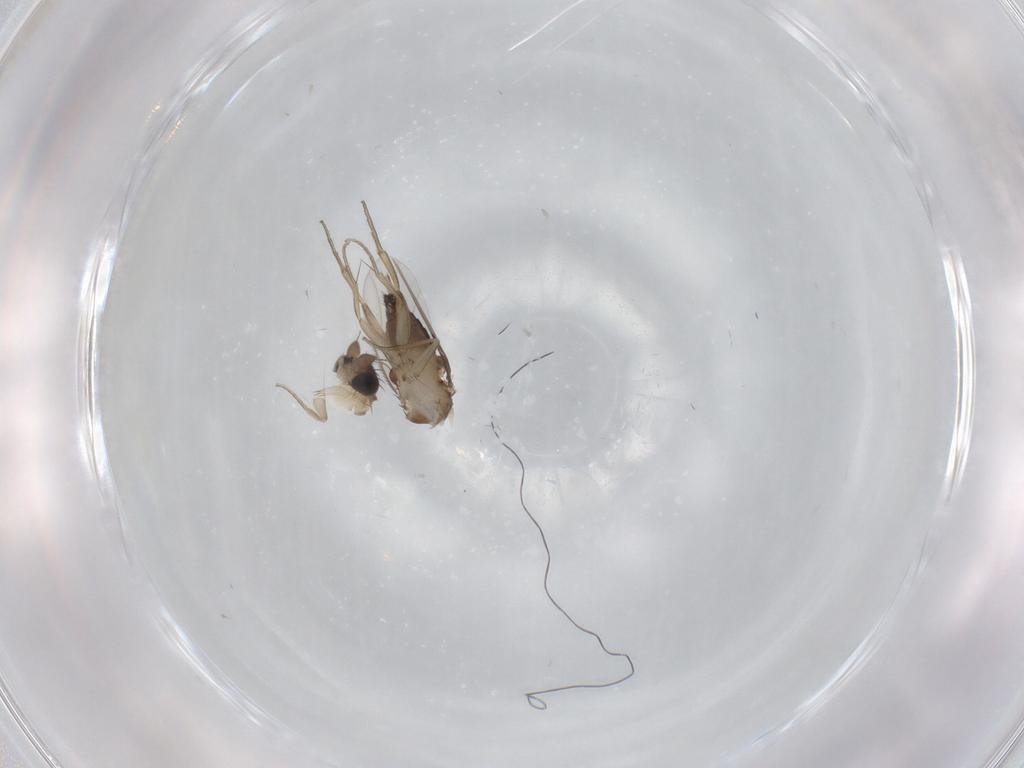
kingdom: Animalia
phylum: Arthropoda
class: Insecta
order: Diptera
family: Phoridae
